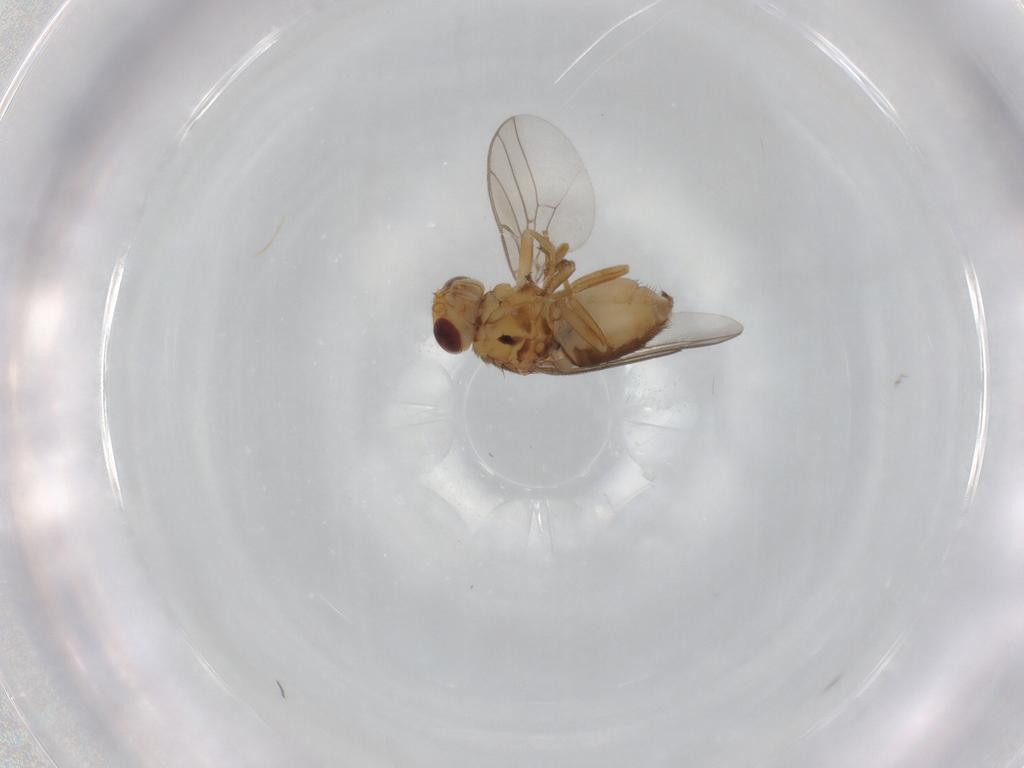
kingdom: Animalia
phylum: Arthropoda
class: Insecta
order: Diptera
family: Chloropidae
